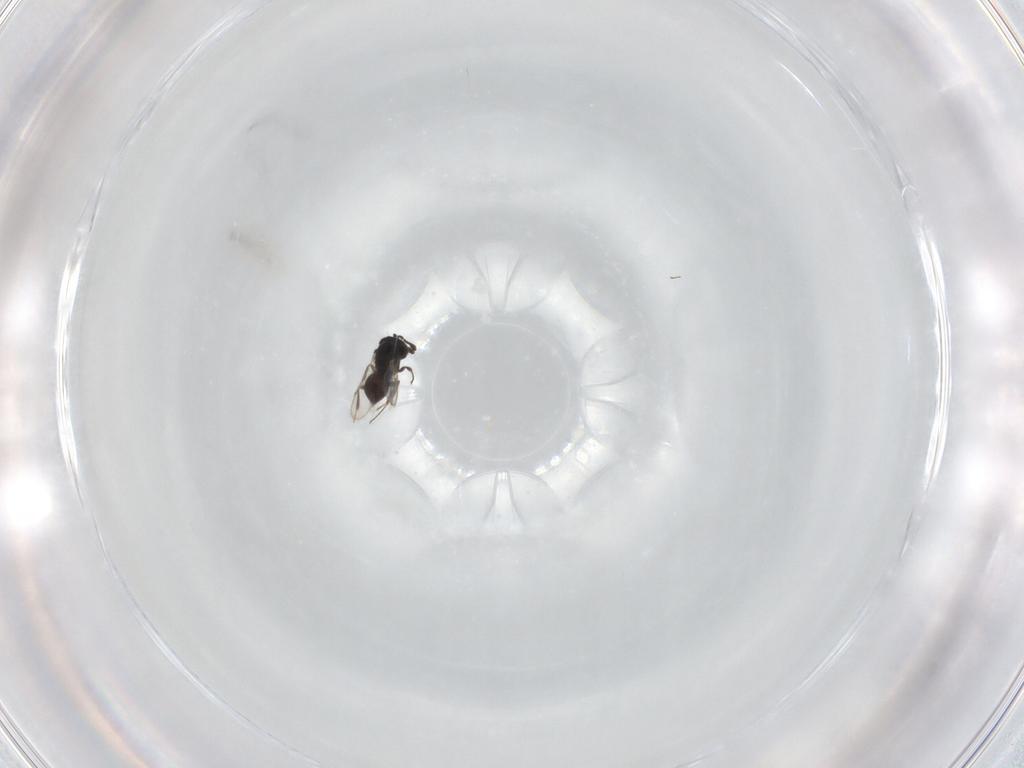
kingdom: Animalia
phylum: Arthropoda
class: Insecta
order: Hymenoptera
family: Scelionidae
